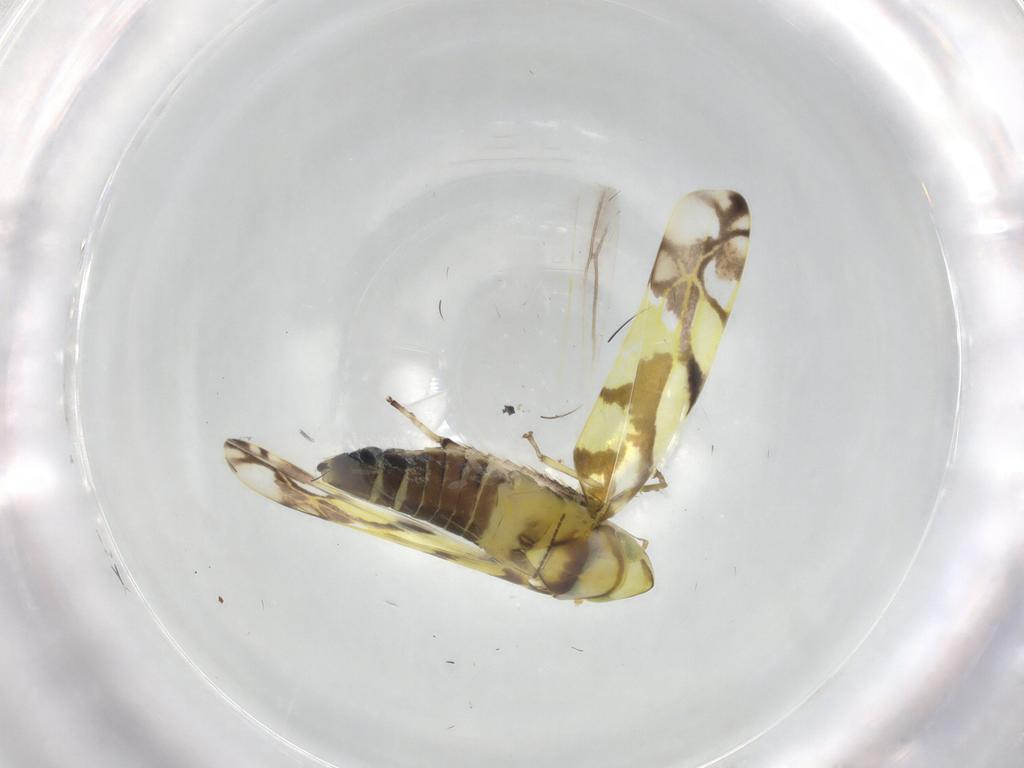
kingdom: Animalia
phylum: Arthropoda
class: Insecta
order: Hemiptera
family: Cicadellidae
